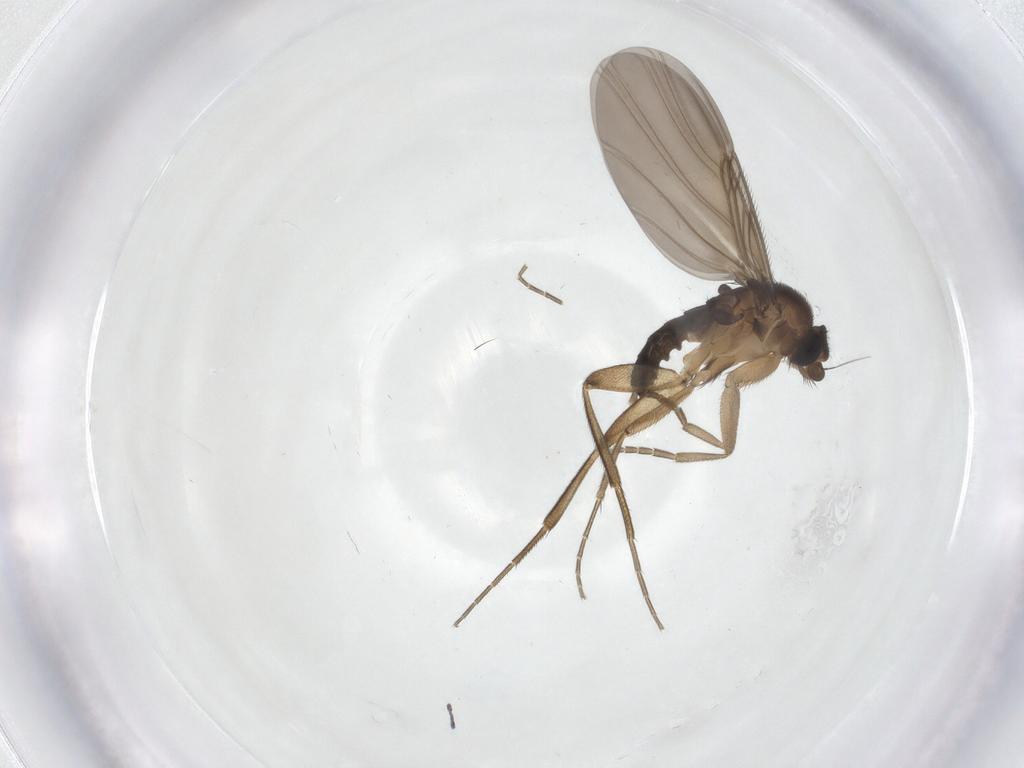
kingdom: Animalia
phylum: Arthropoda
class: Insecta
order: Diptera
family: Phoridae
